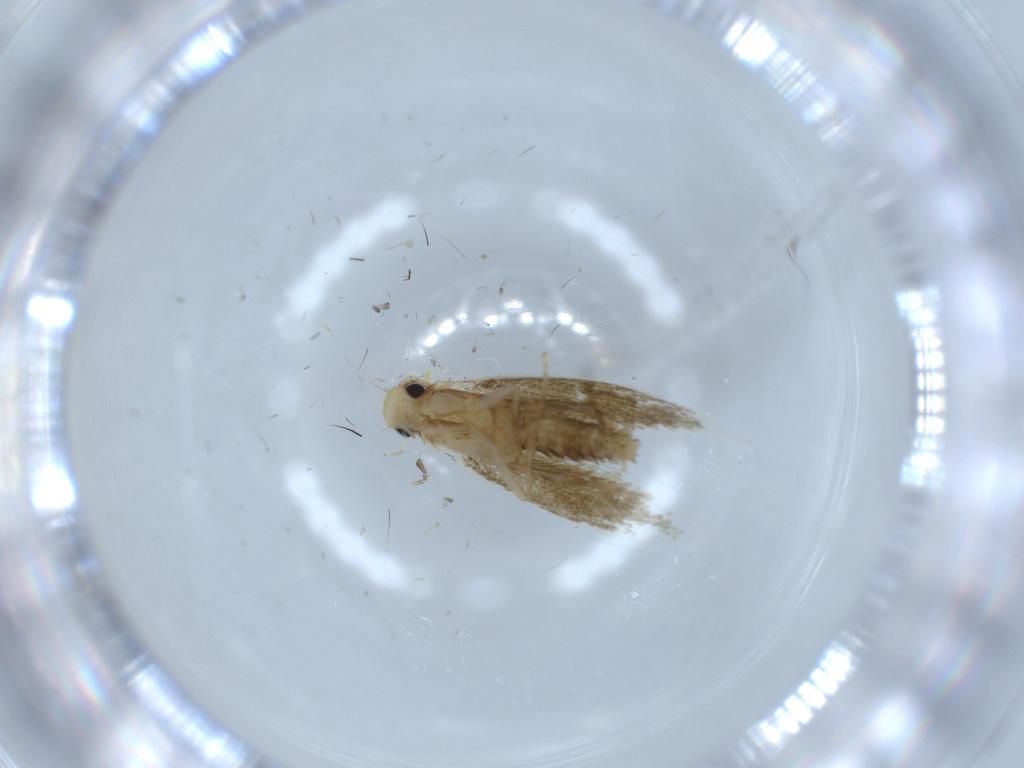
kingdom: Animalia
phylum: Arthropoda
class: Insecta
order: Lepidoptera
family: Tineidae
